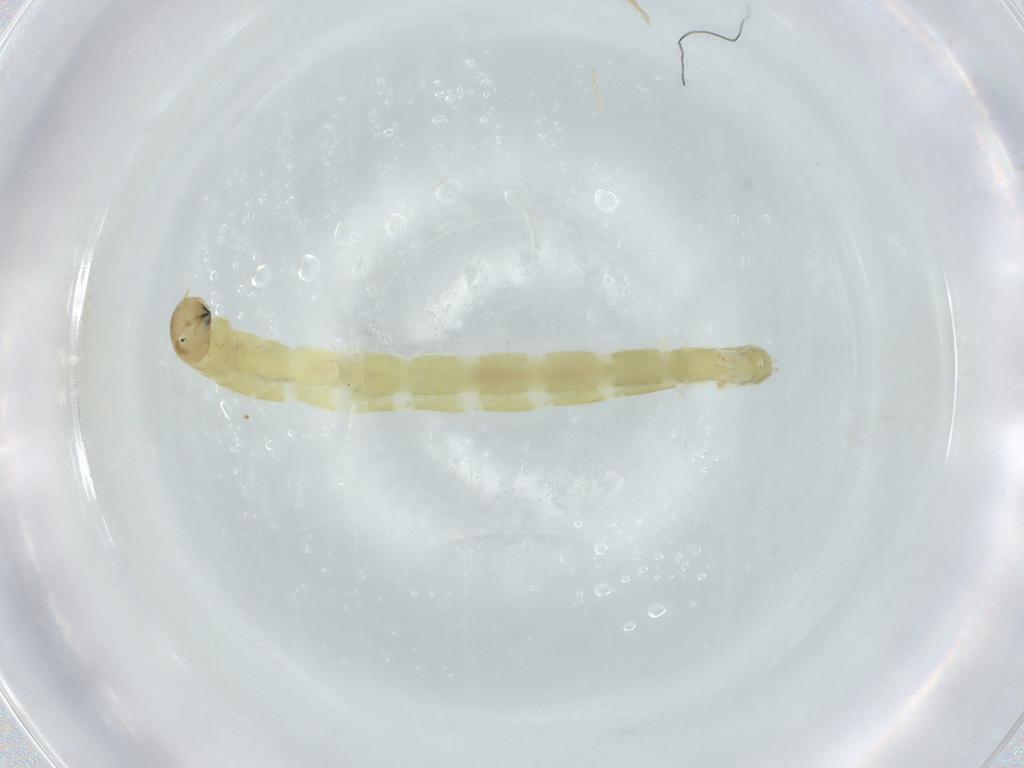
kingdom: Animalia
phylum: Arthropoda
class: Insecta
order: Diptera
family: Chironomidae
